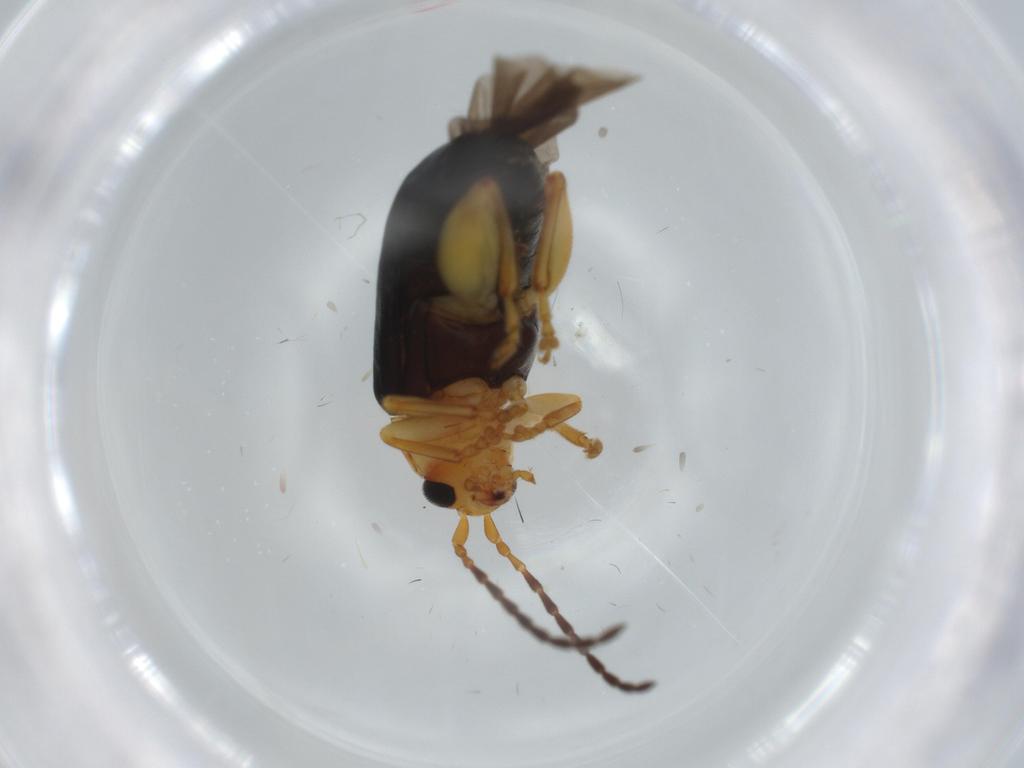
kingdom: Animalia
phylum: Arthropoda
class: Insecta
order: Coleoptera
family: Chrysomelidae
